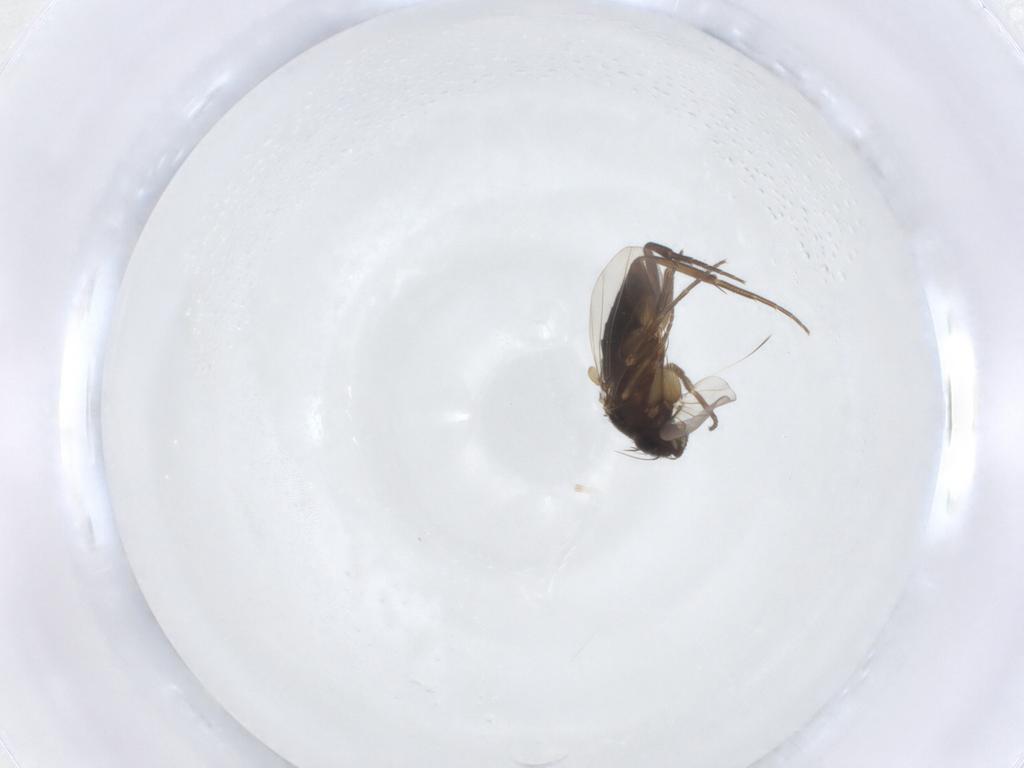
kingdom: Animalia
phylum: Arthropoda
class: Insecta
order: Diptera
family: Phoridae
